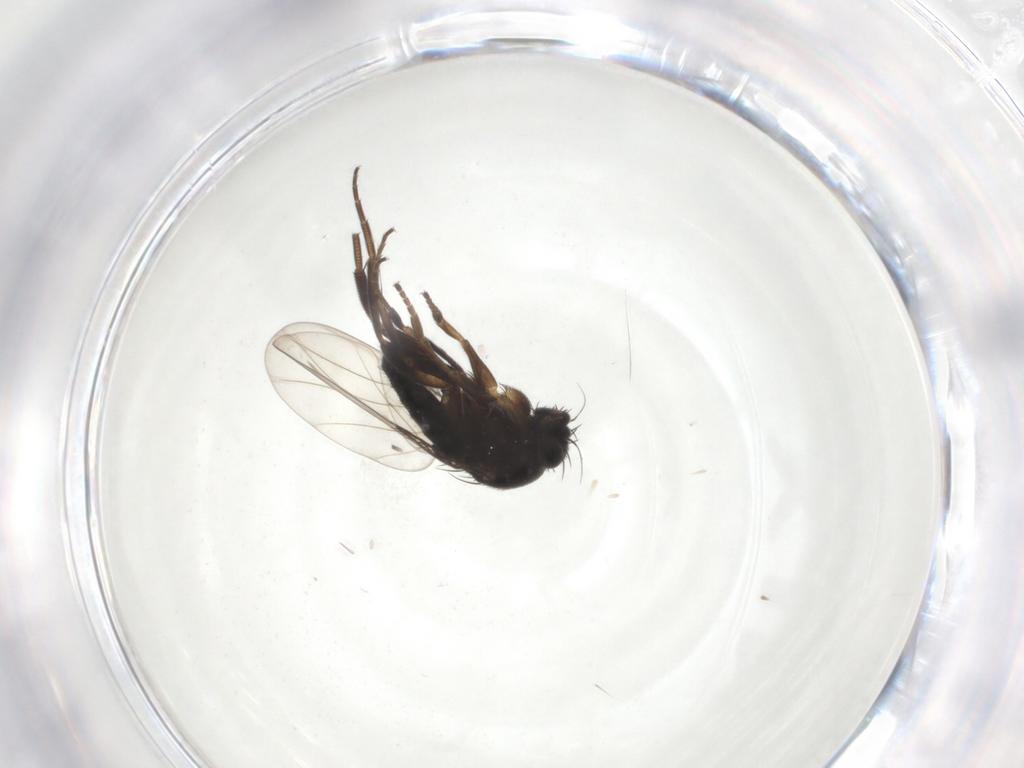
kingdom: Animalia
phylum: Arthropoda
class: Insecta
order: Diptera
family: Phoridae
